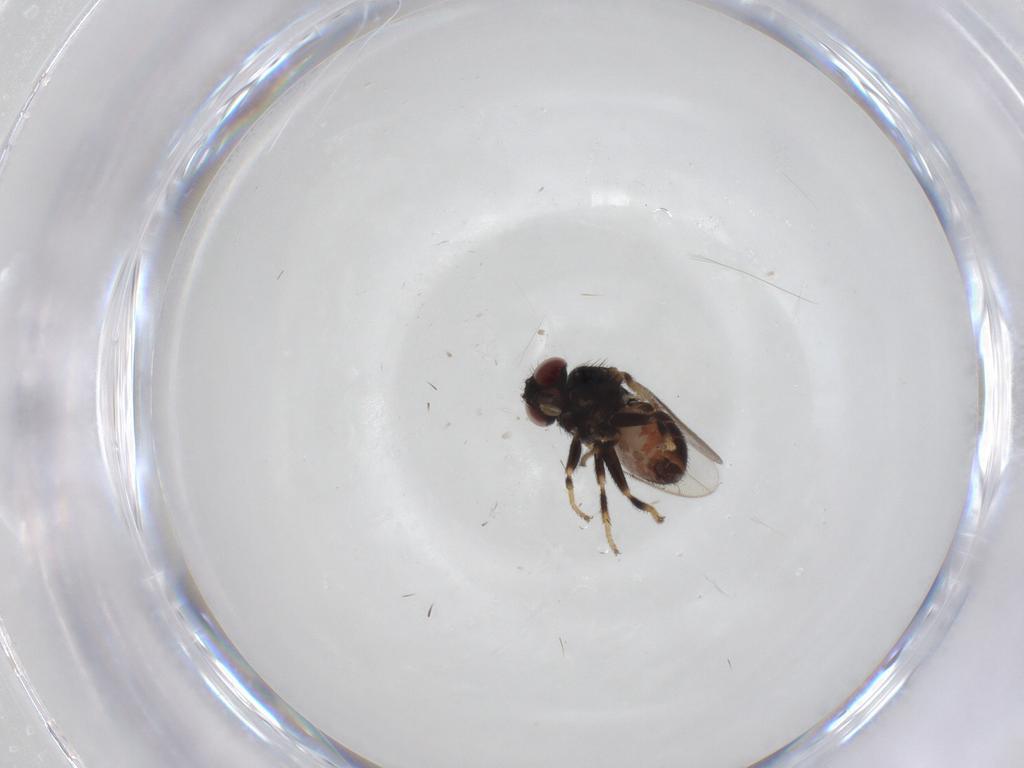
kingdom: Animalia
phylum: Arthropoda
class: Insecta
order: Diptera
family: Chloropidae
